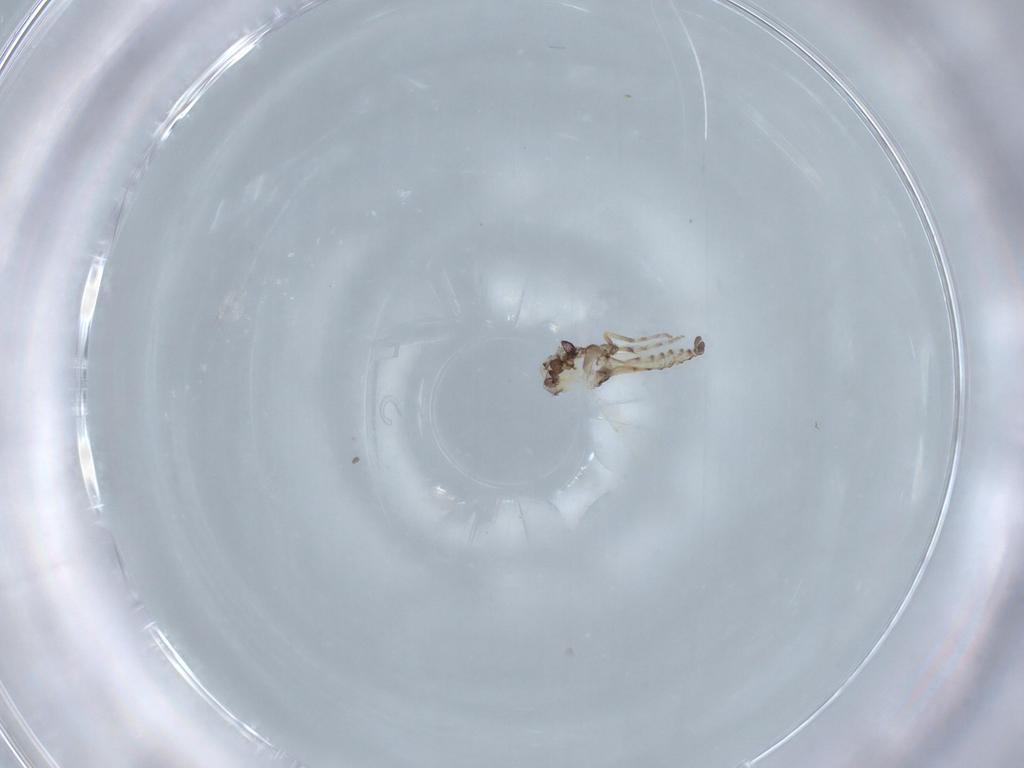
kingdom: Animalia
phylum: Arthropoda
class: Insecta
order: Diptera
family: Ceratopogonidae
